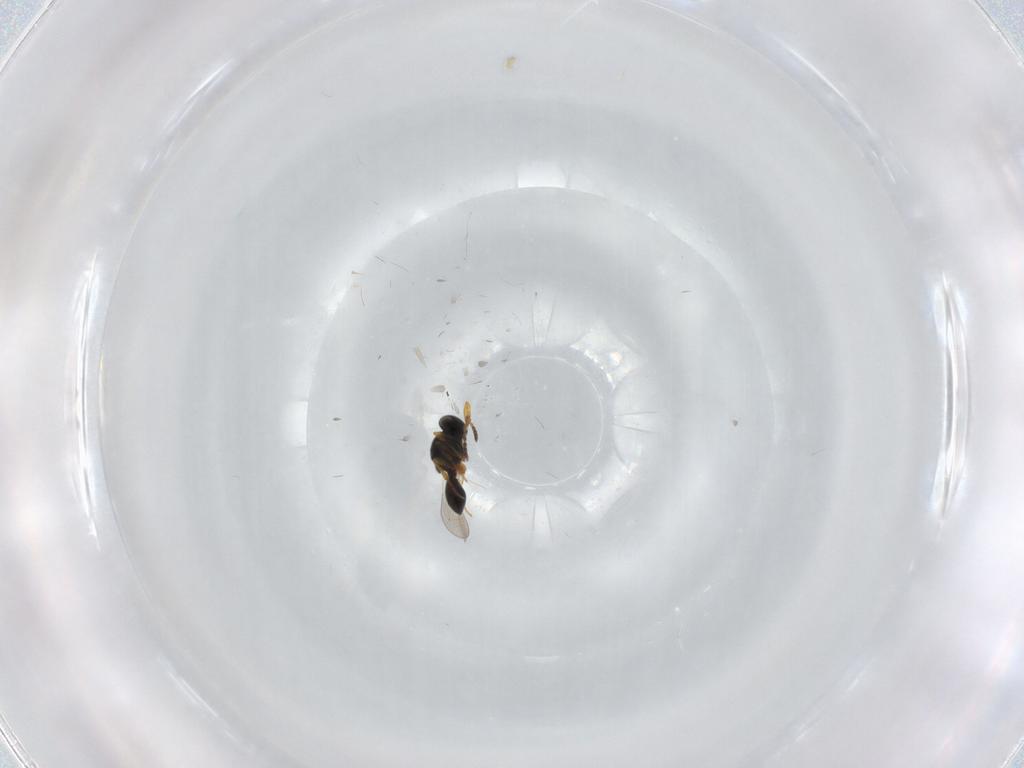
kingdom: Animalia
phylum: Arthropoda
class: Insecta
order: Hymenoptera
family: Platygastridae
